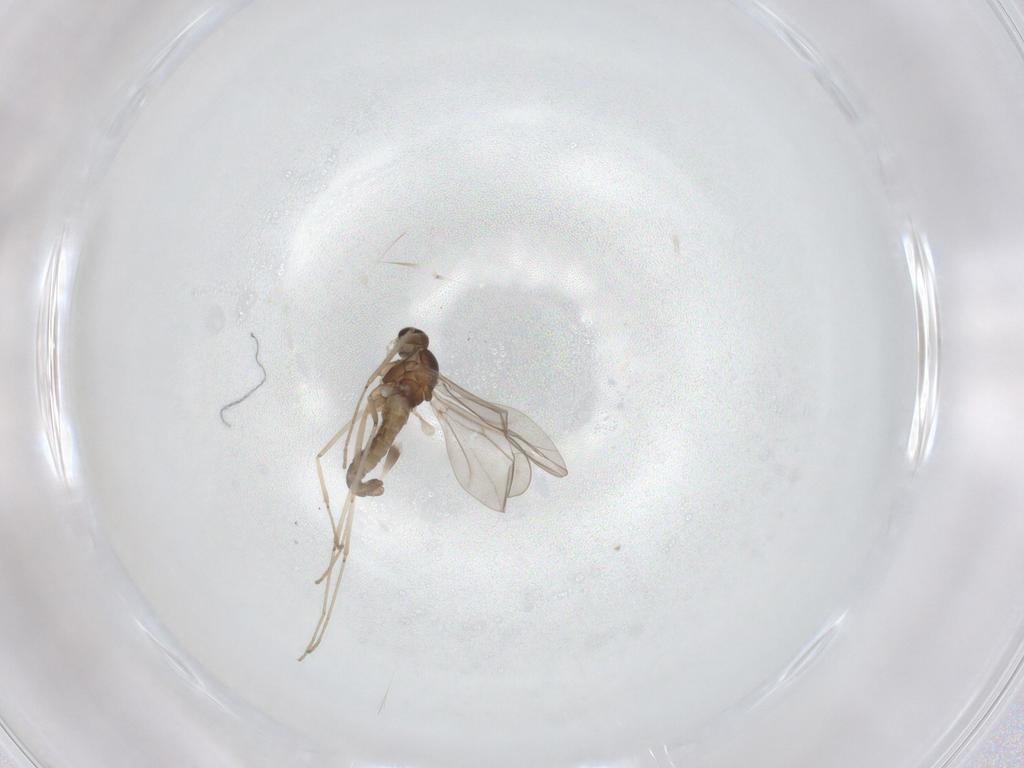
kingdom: Animalia
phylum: Arthropoda
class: Insecta
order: Diptera
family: Cecidomyiidae
